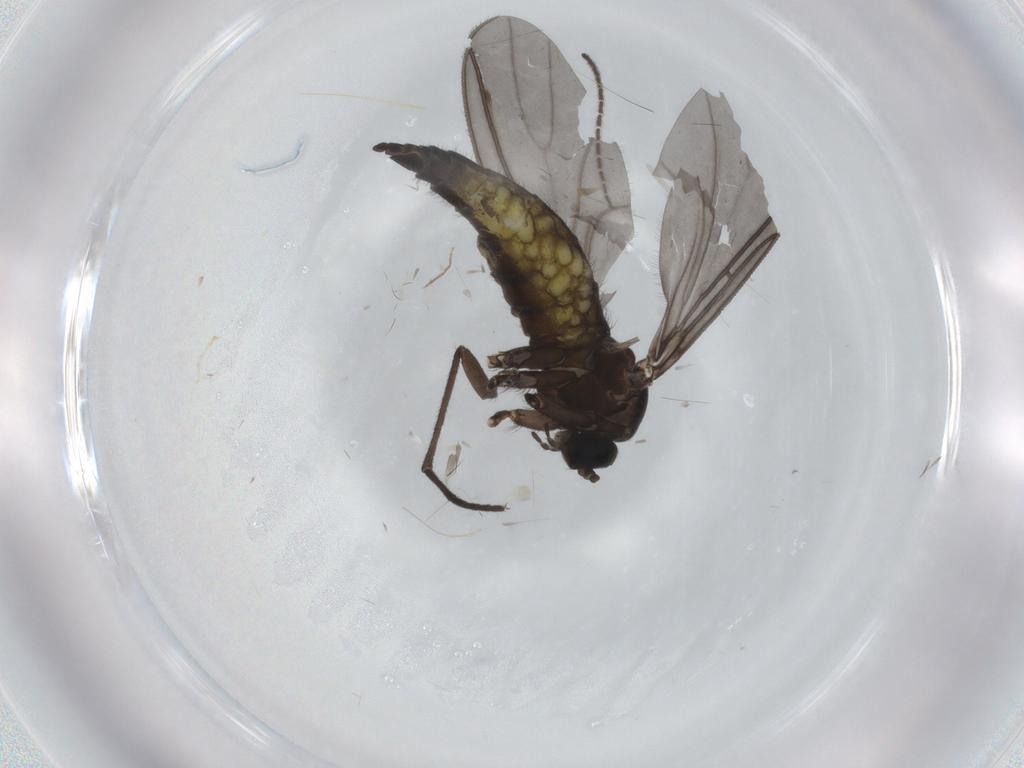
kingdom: Animalia
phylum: Arthropoda
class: Insecta
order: Diptera
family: Sciaridae
